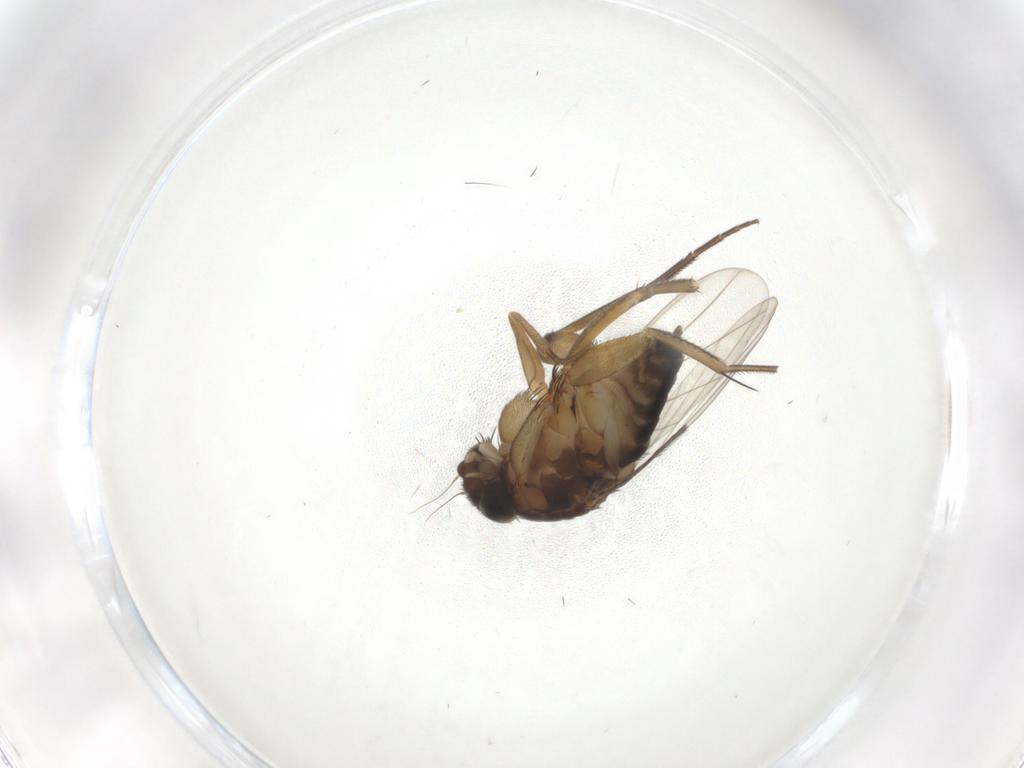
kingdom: Animalia
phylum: Arthropoda
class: Insecta
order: Diptera
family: Phoridae
